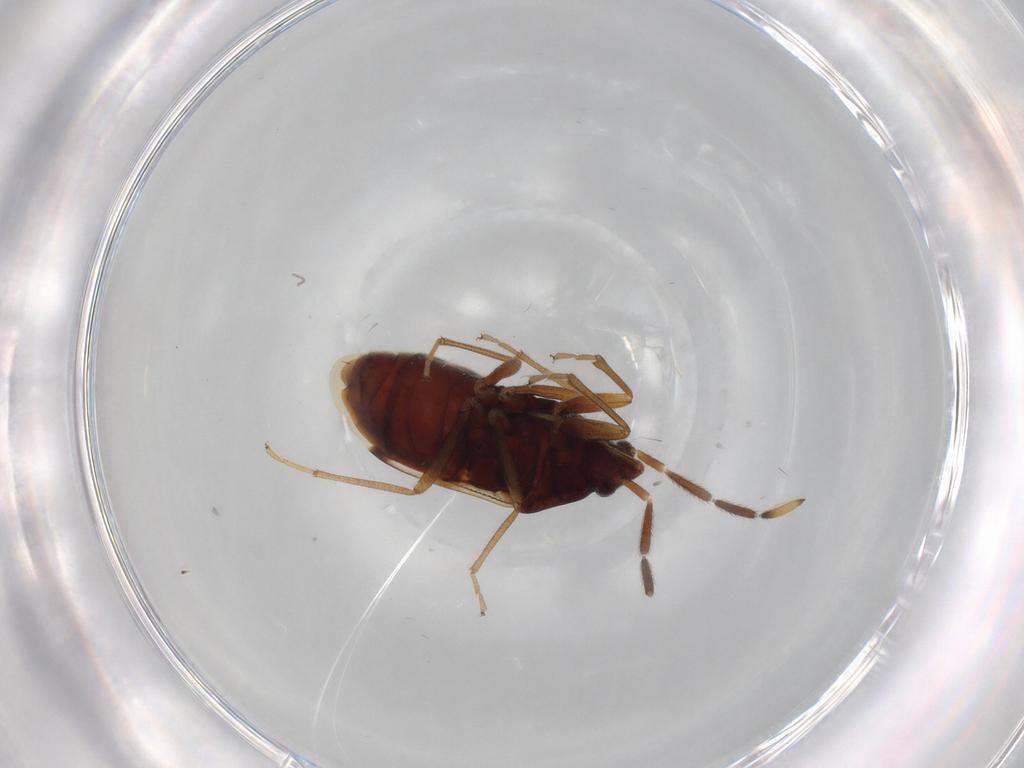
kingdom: Animalia
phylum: Arthropoda
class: Insecta
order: Hemiptera
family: Rhyparochromidae
